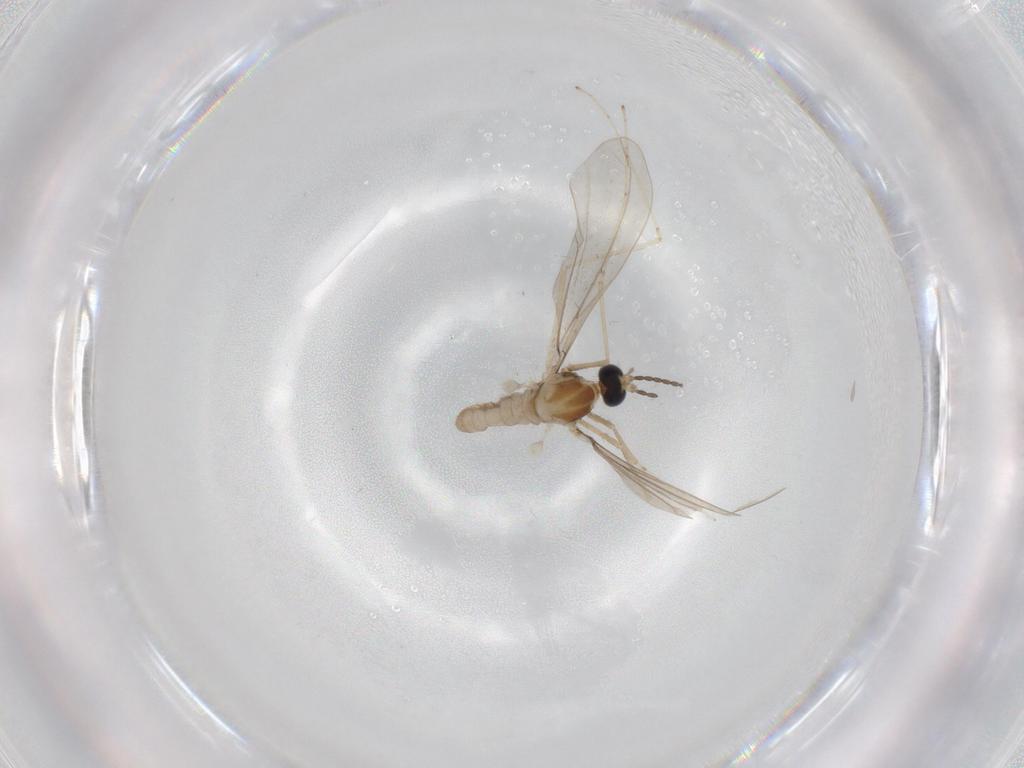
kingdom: Animalia
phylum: Arthropoda
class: Insecta
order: Diptera
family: Cecidomyiidae
